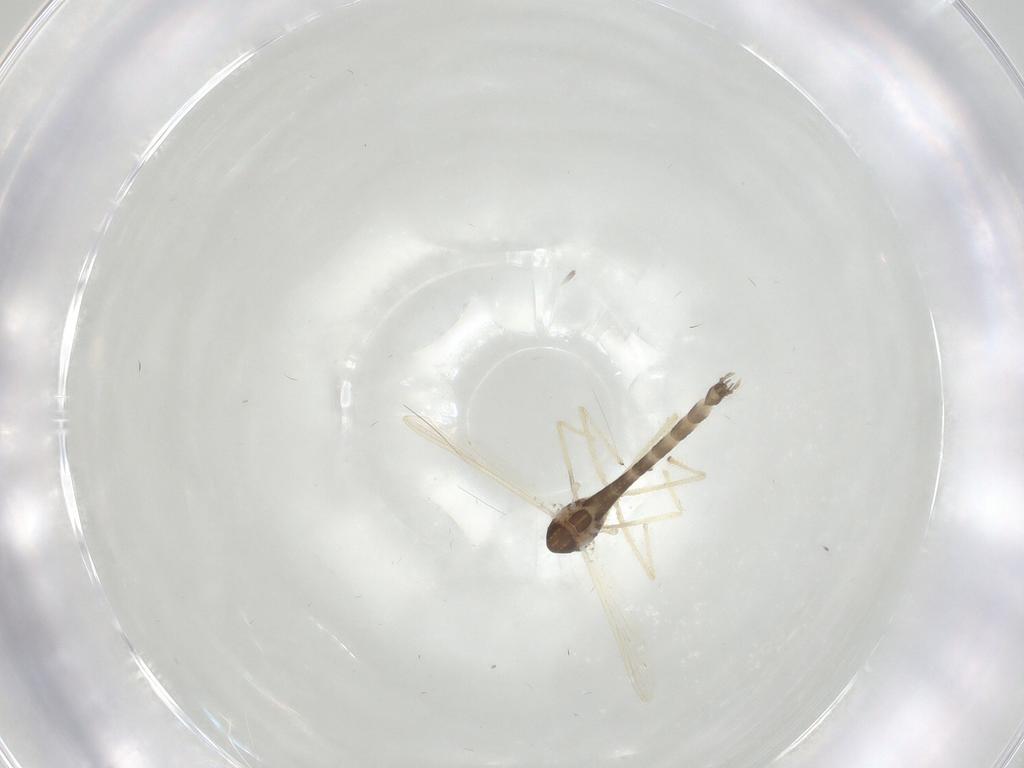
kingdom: Animalia
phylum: Arthropoda
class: Insecta
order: Diptera
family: Chironomidae
